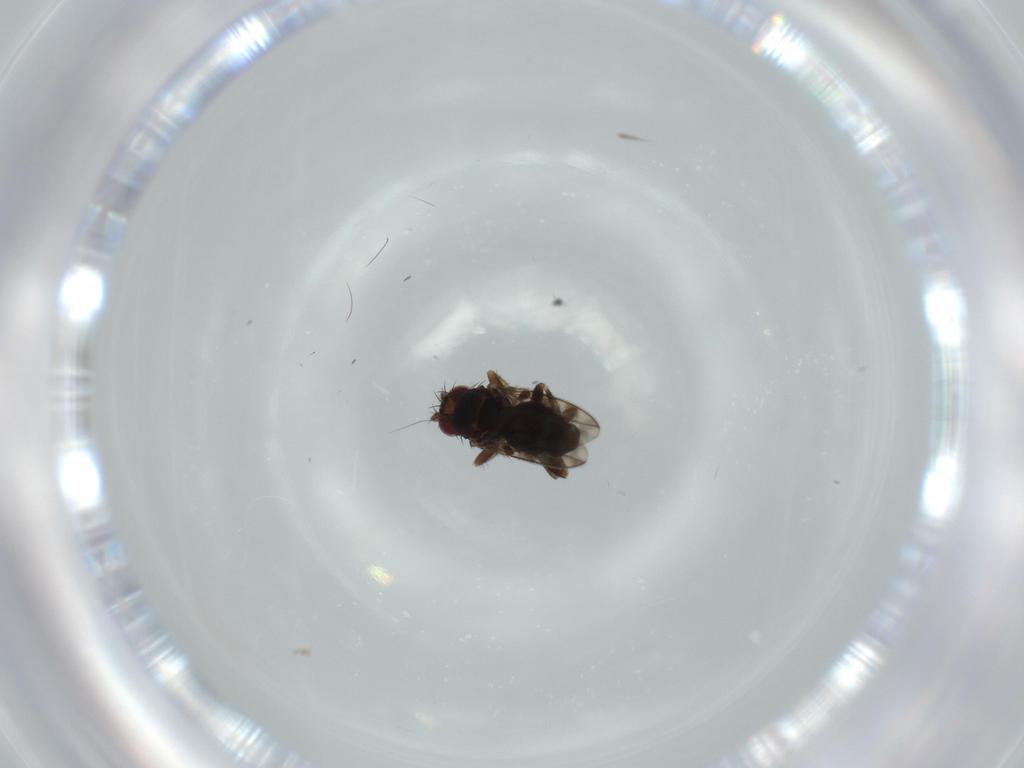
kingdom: Animalia
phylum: Arthropoda
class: Insecta
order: Diptera
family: Sphaeroceridae
